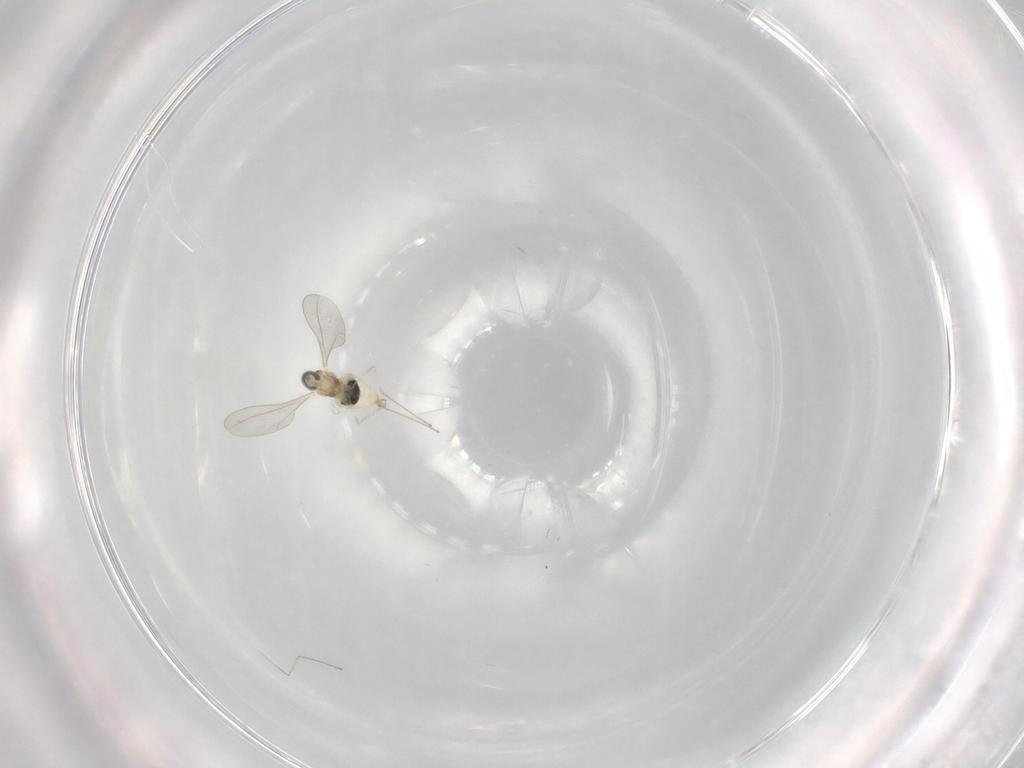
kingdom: Animalia
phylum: Arthropoda
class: Insecta
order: Diptera
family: Cecidomyiidae
